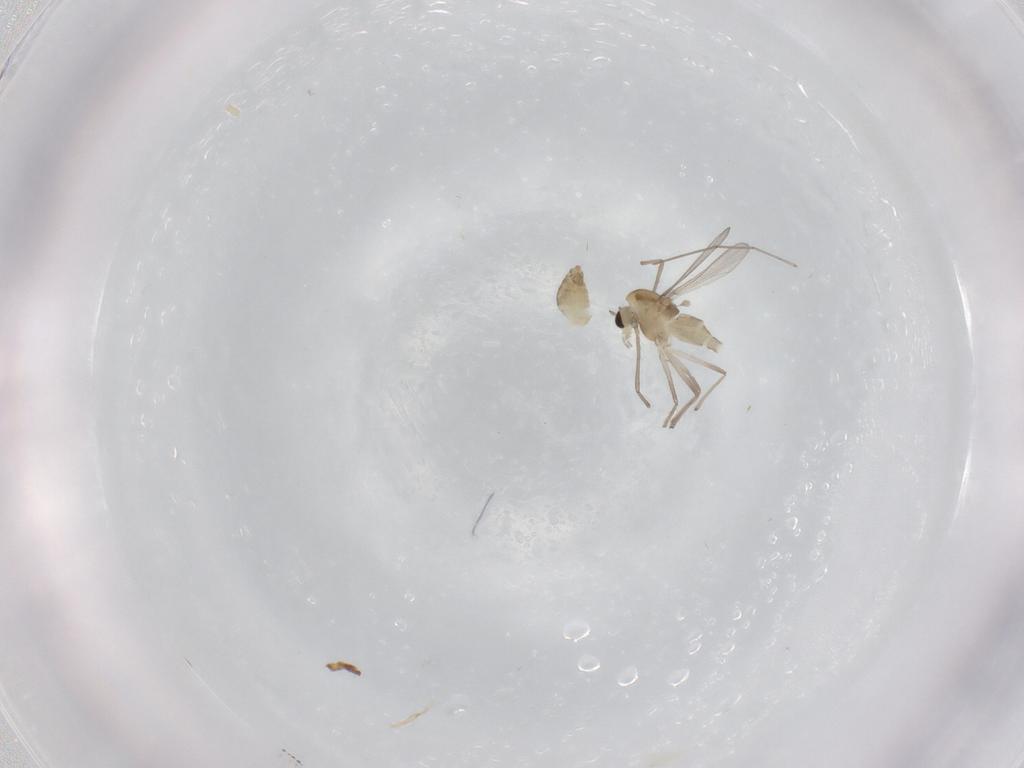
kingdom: Animalia
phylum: Arthropoda
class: Insecta
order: Diptera
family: Chironomidae
